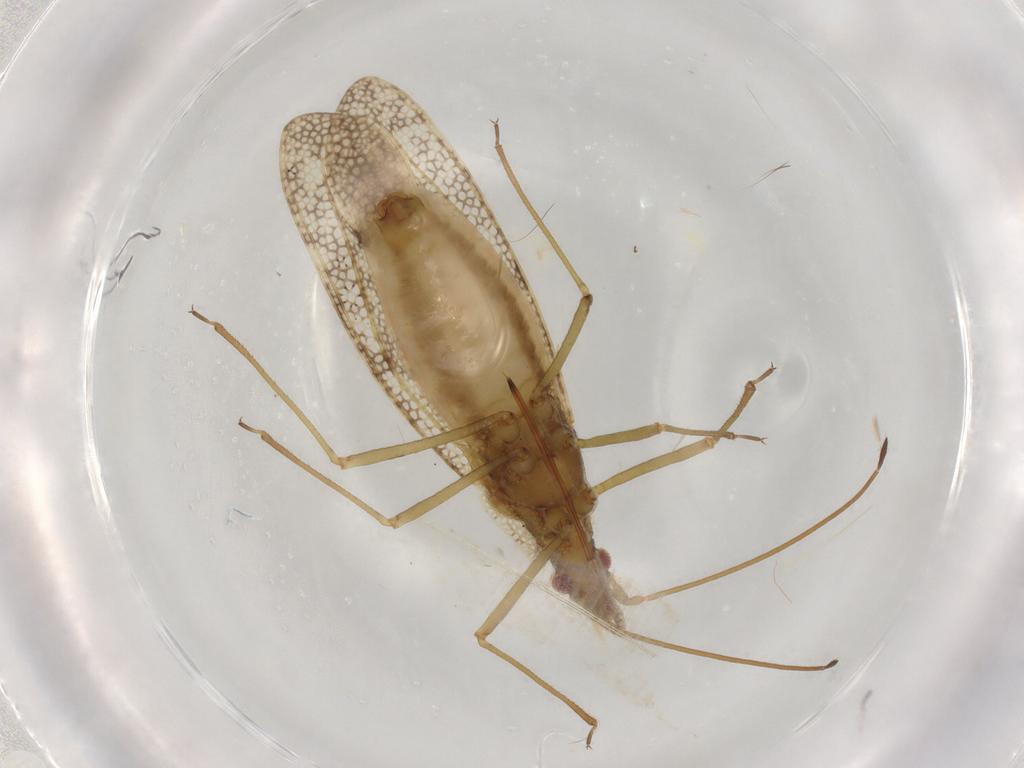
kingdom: Animalia
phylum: Arthropoda
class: Insecta
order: Hemiptera
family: Tingidae
